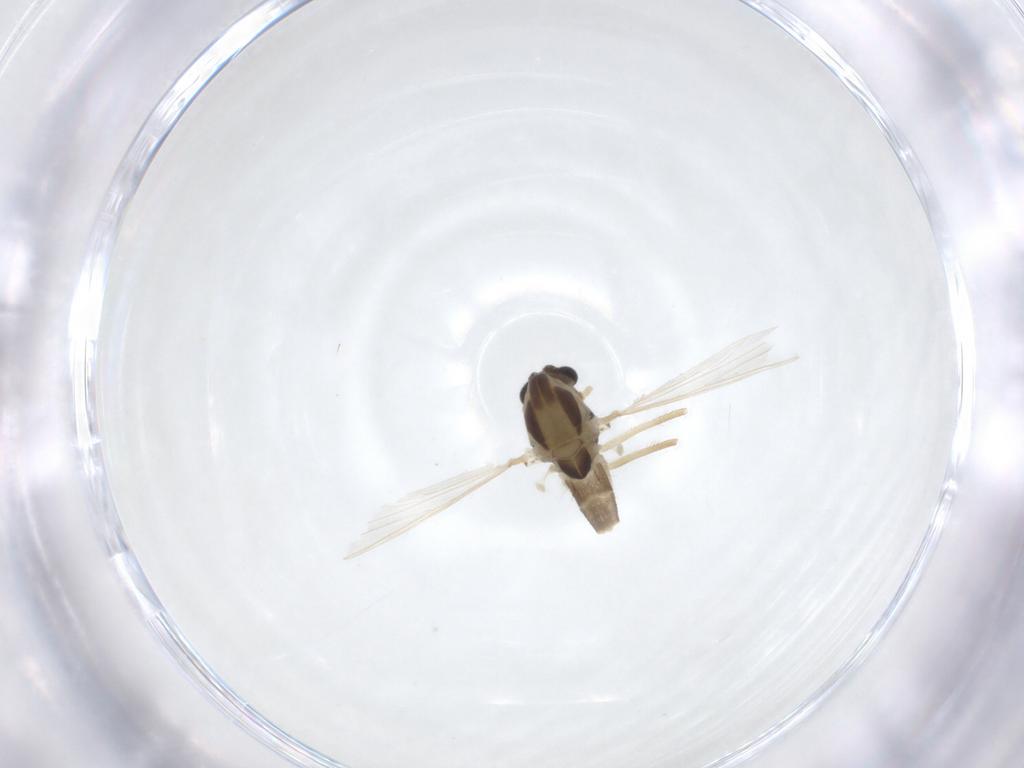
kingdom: Animalia
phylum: Arthropoda
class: Insecta
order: Diptera
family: Chironomidae
